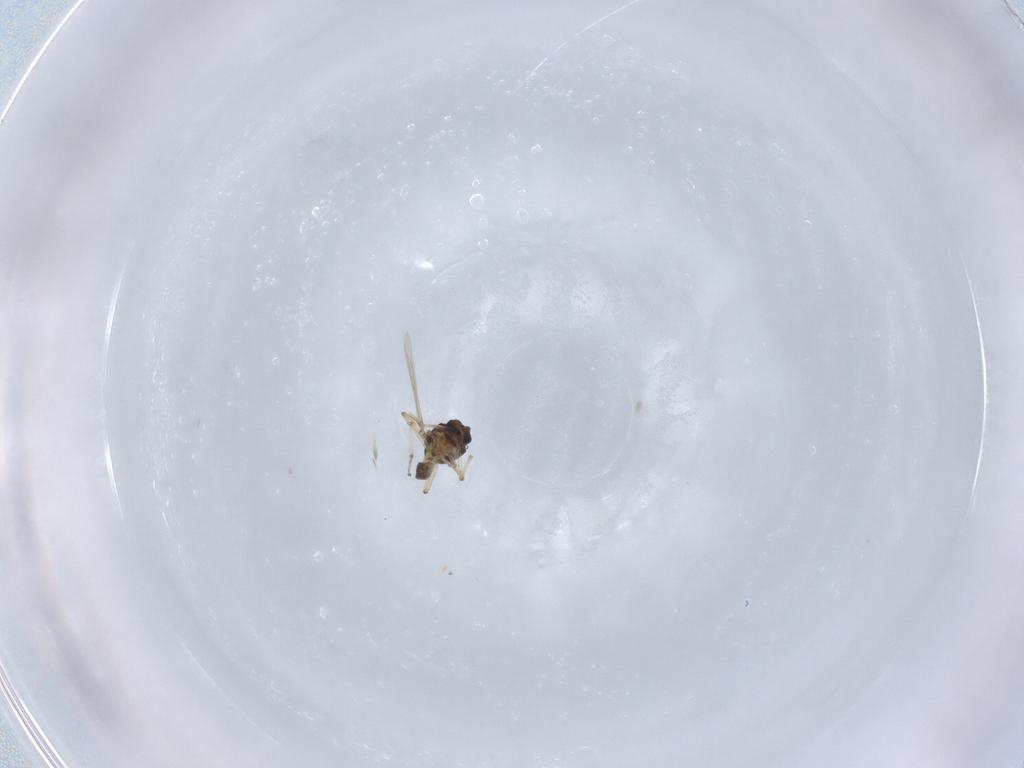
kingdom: Animalia
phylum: Arthropoda
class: Insecta
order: Diptera
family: Ceratopogonidae
